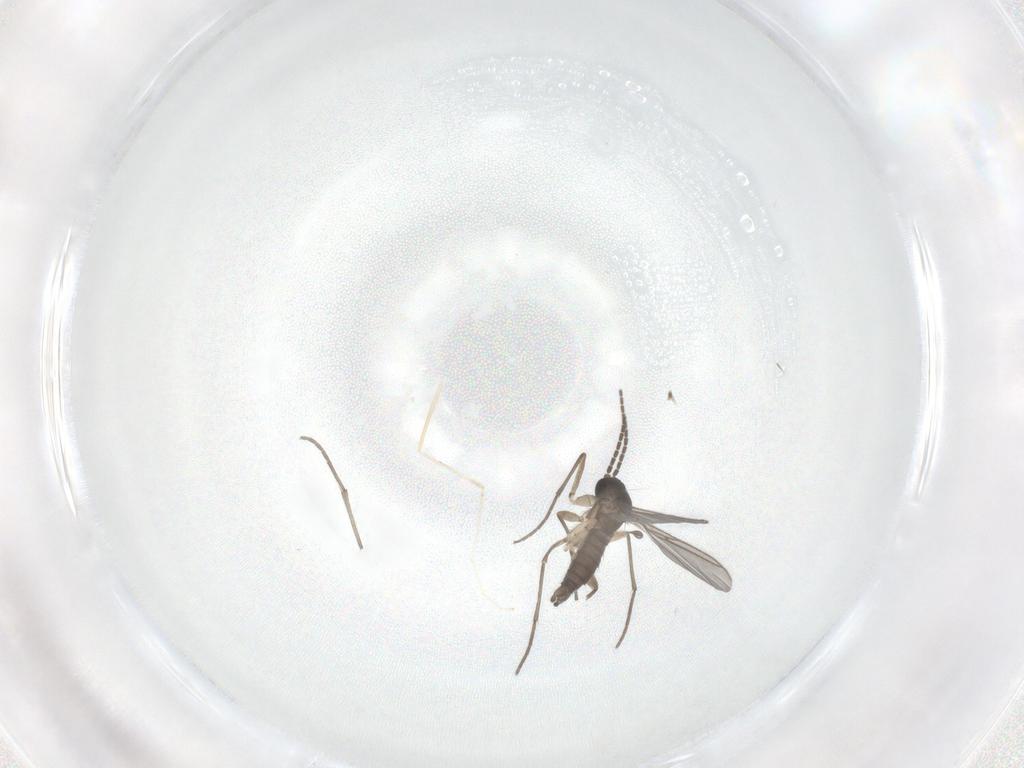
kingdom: Animalia
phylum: Arthropoda
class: Insecta
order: Diptera
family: Sciaridae
